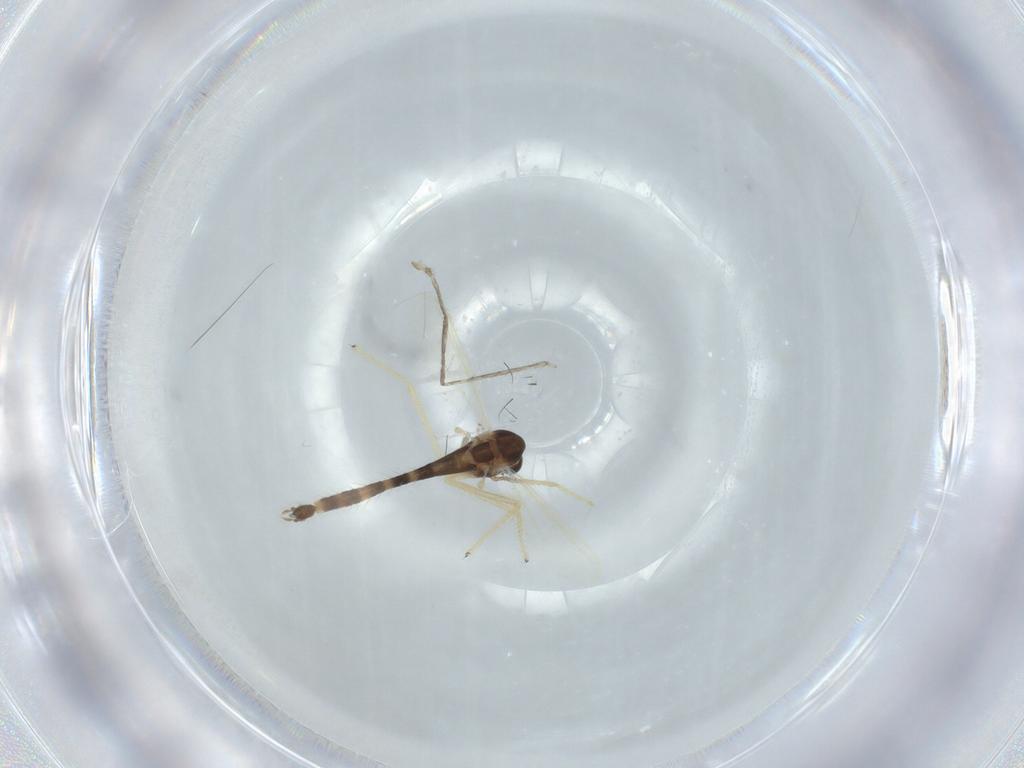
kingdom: Animalia
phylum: Arthropoda
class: Insecta
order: Diptera
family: Chironomidae
